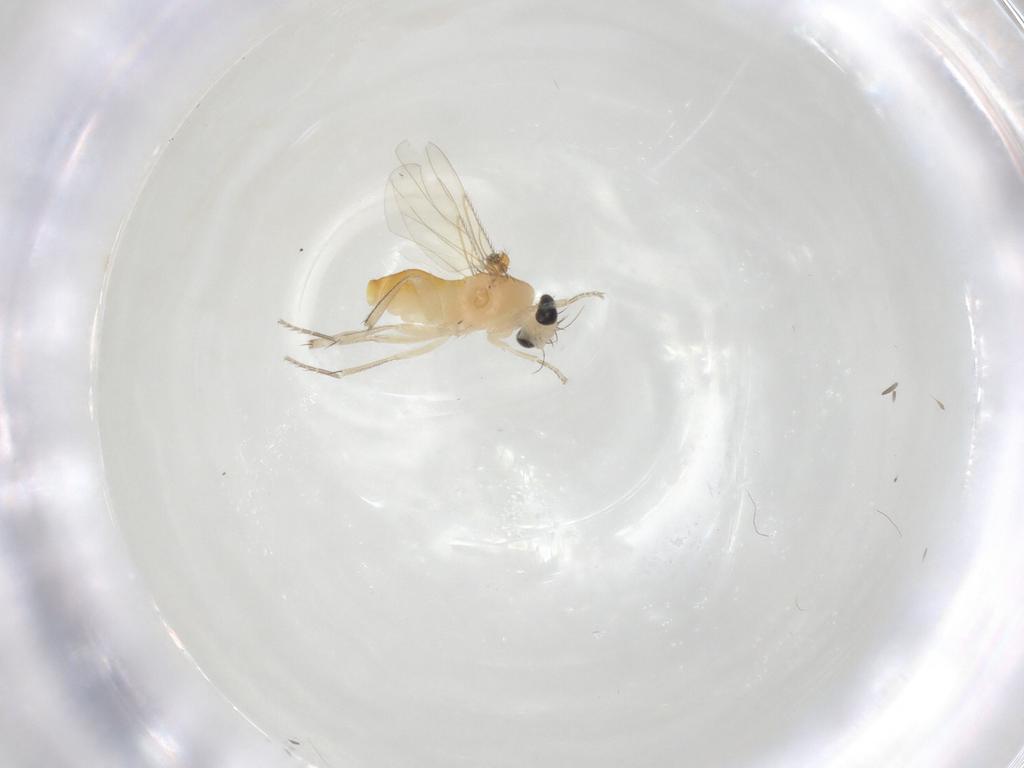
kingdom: Animalia
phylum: Arthropoda
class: Insecta
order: Diptera
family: Phoridae
